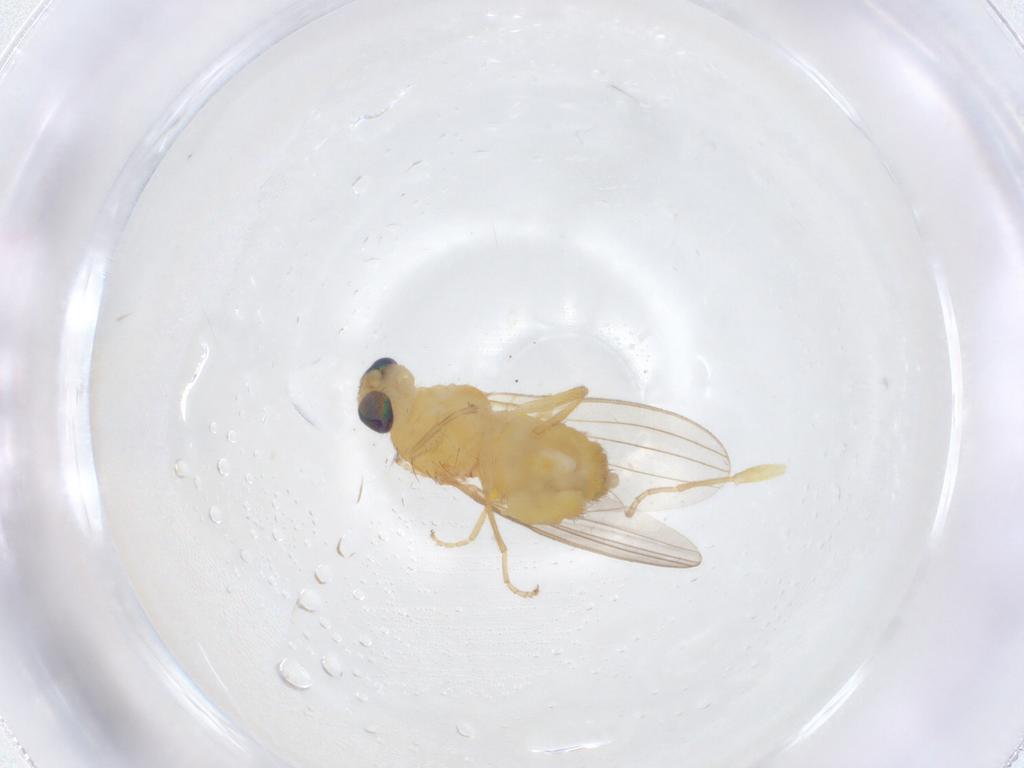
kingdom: Animalia
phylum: Arthropoda
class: Insecta
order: Diptera
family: Chyromyidae
